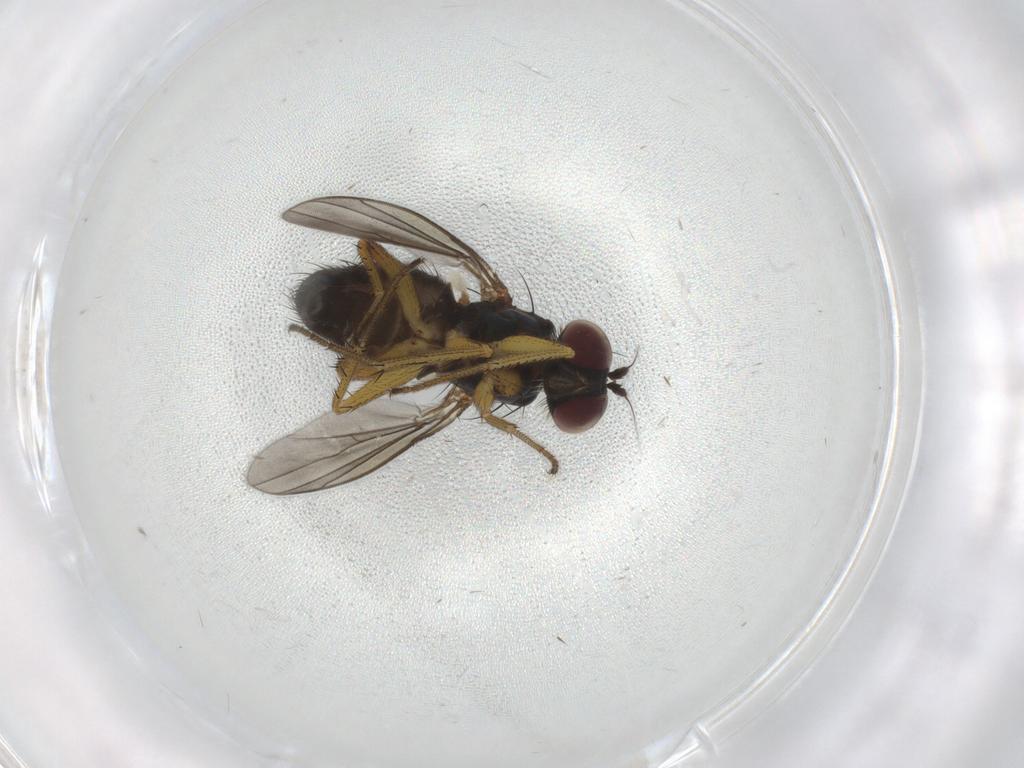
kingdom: Animalia
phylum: Arthropoda
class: Insecta
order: Diptera
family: Dolichopodidae
